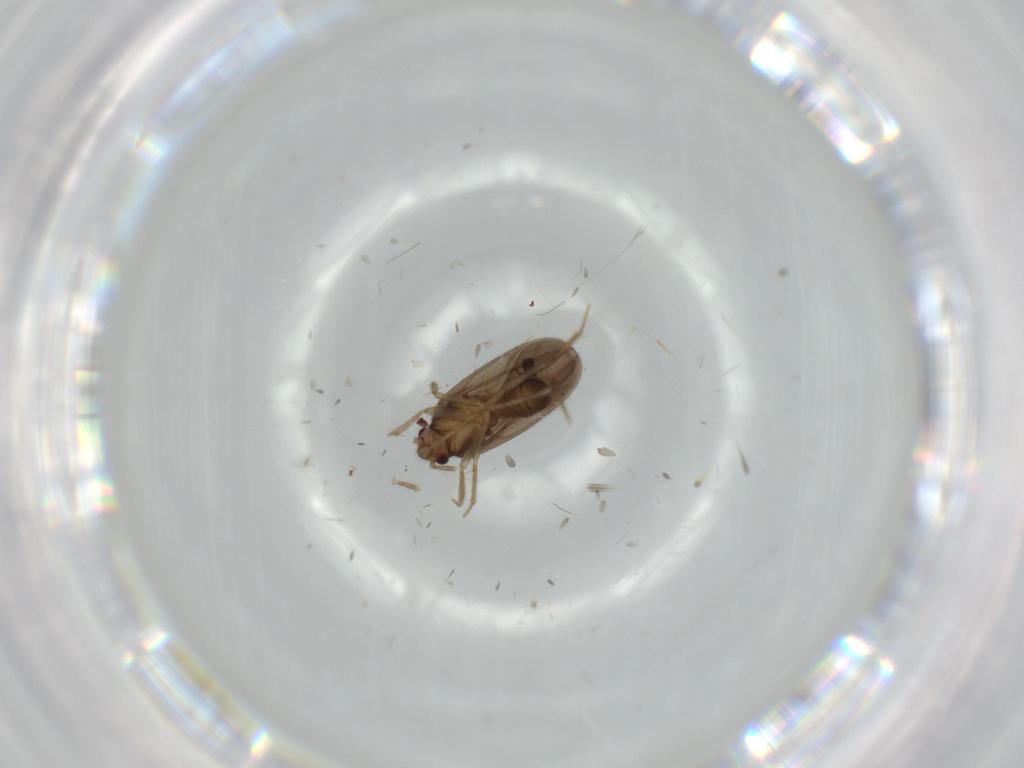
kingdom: Animalia
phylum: Arthropoda
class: Insecta
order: Hemiptera
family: Ceratocombidae
